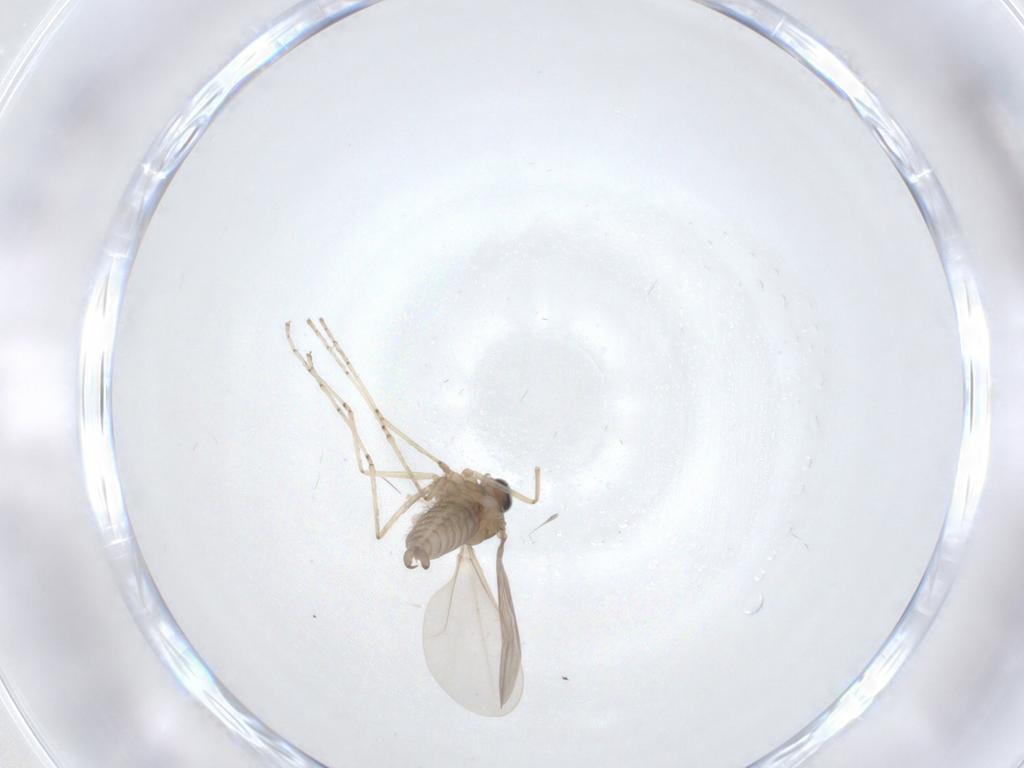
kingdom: Animalia
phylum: Arthropoda
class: Insecta
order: Diptera
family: Cecidomyiidae
